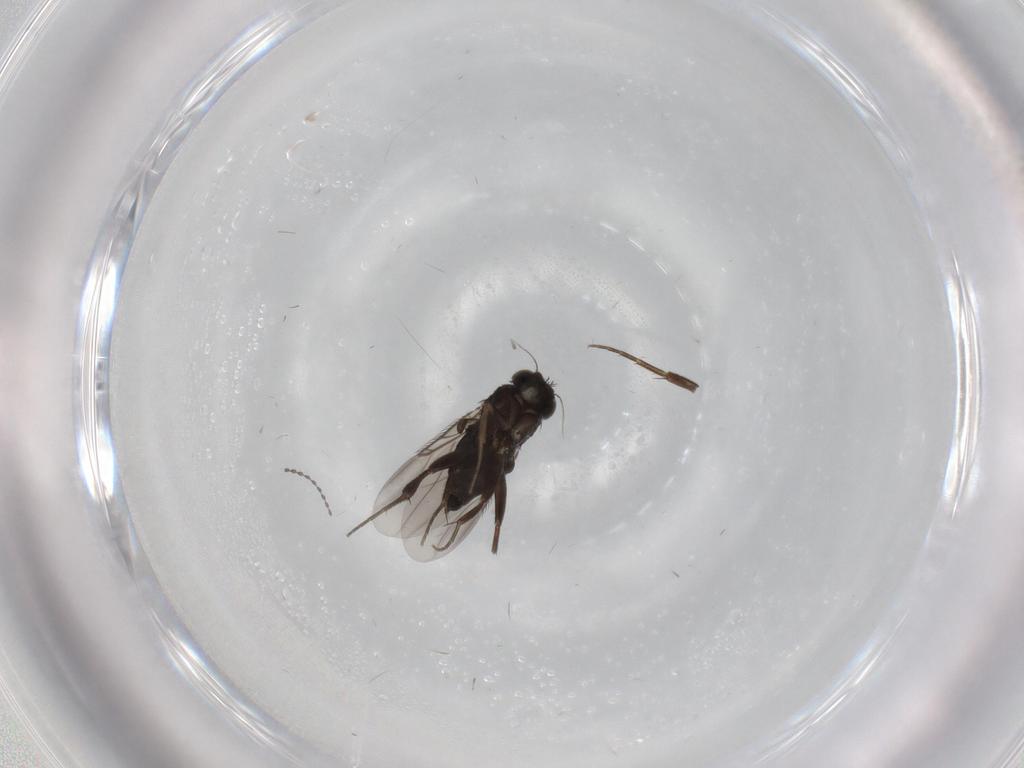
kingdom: Animalia
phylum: Arthropoda
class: Insecta
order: Diptera
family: Phoridae
